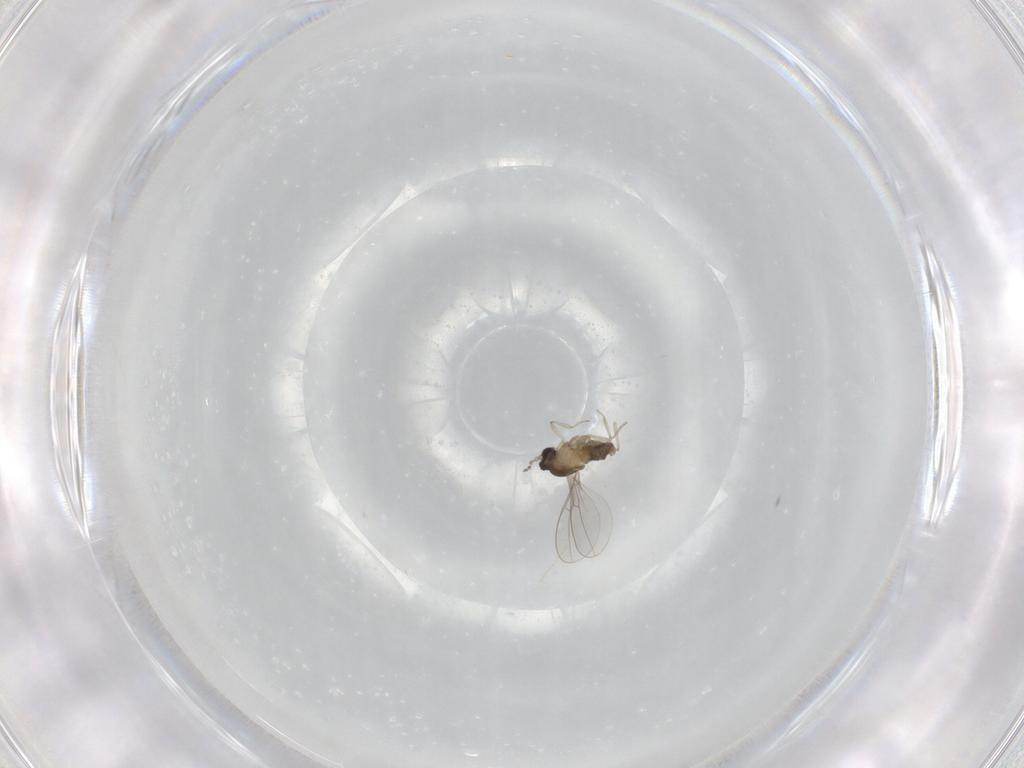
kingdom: Animalia
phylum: Arthropoda
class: Insecta
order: Diptera
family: Cecidomyiidae
